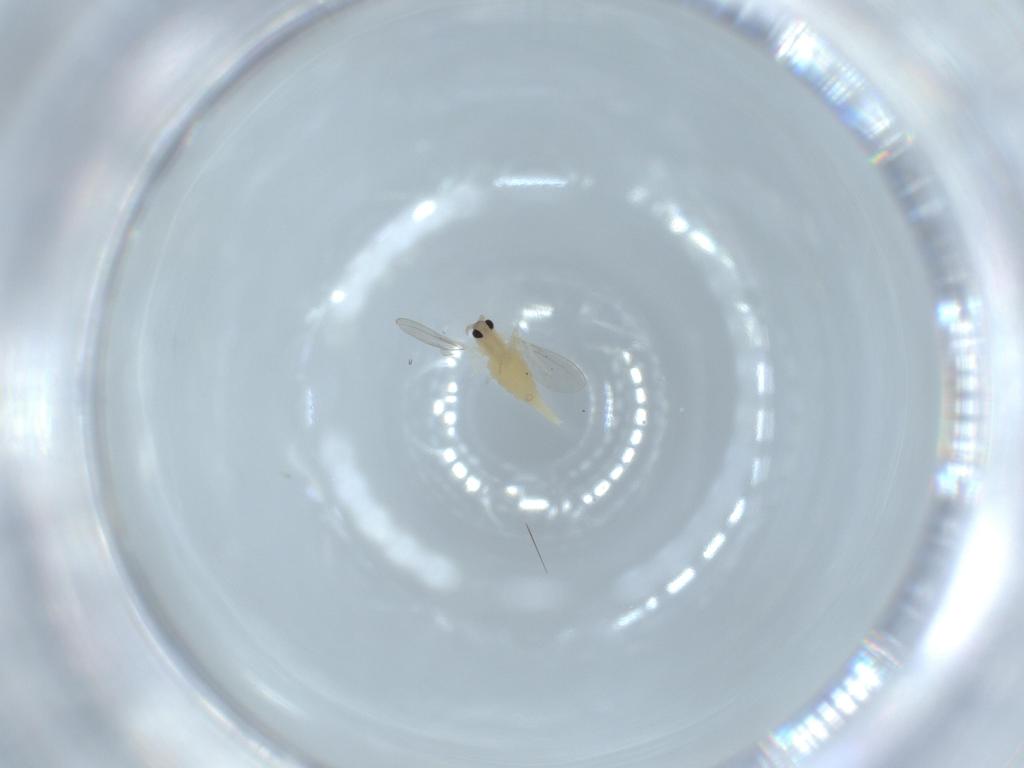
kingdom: Animalia
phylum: Arthropoda
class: Insecta
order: Diptera
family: Cecidomyiidae
